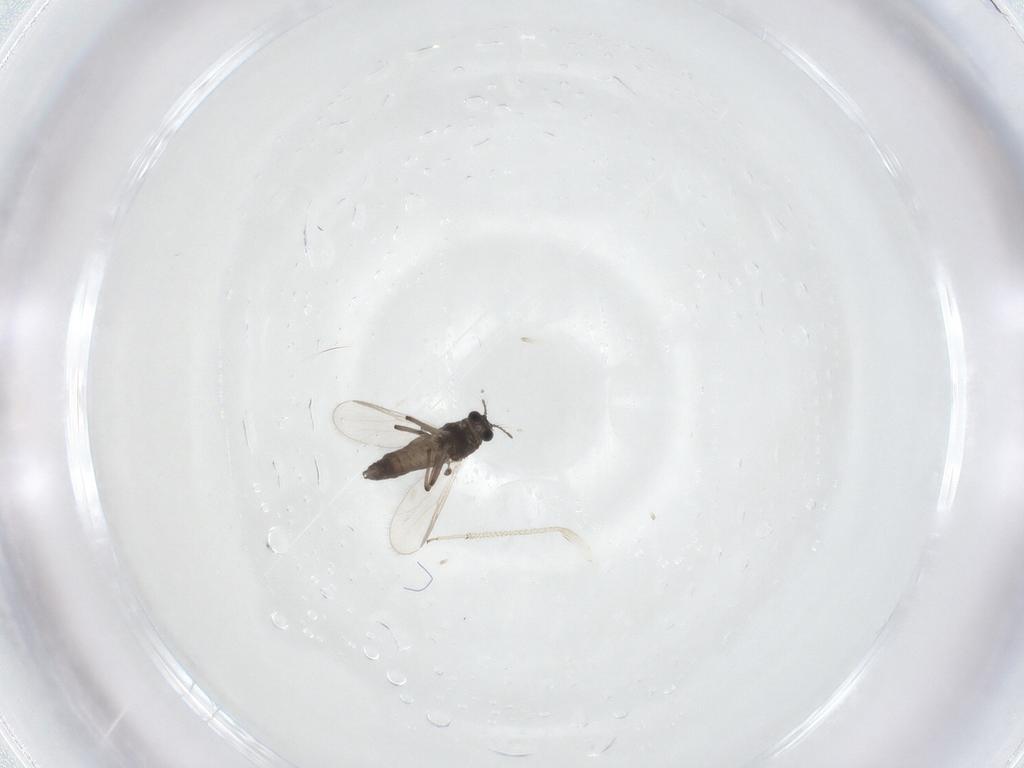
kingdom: Animalia
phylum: Arthropoda
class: Insecta
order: Diptera
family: Chironomidae
